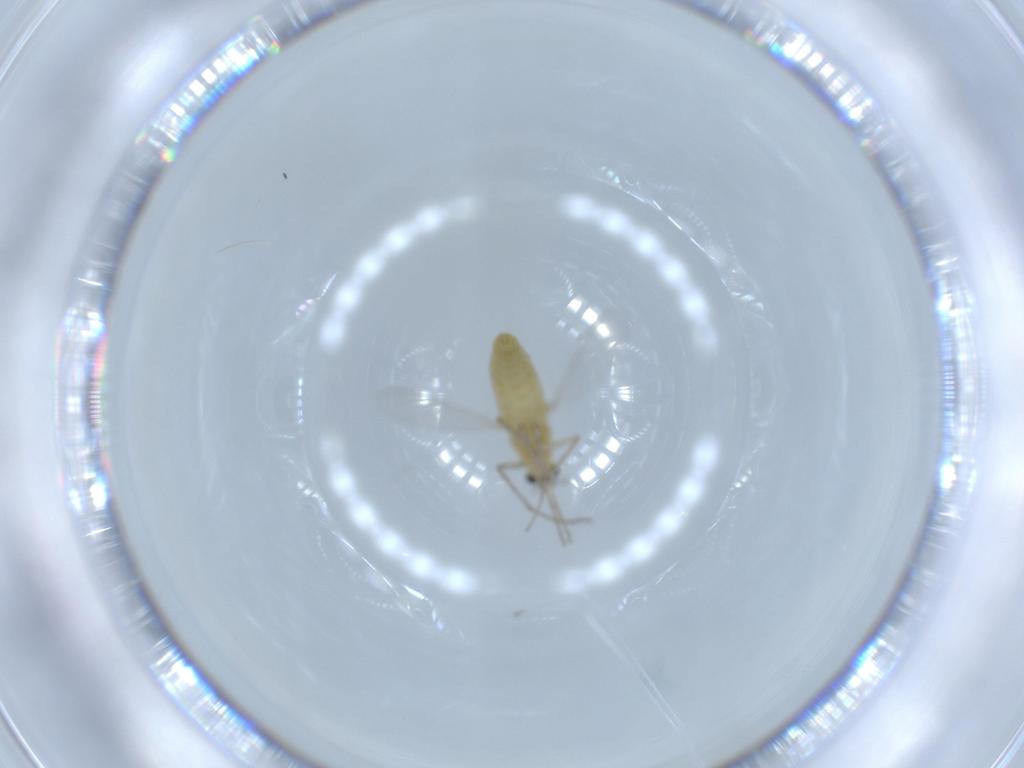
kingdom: Animalia
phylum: Arthropoda
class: Insecta
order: Diptera
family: Chironomidae
